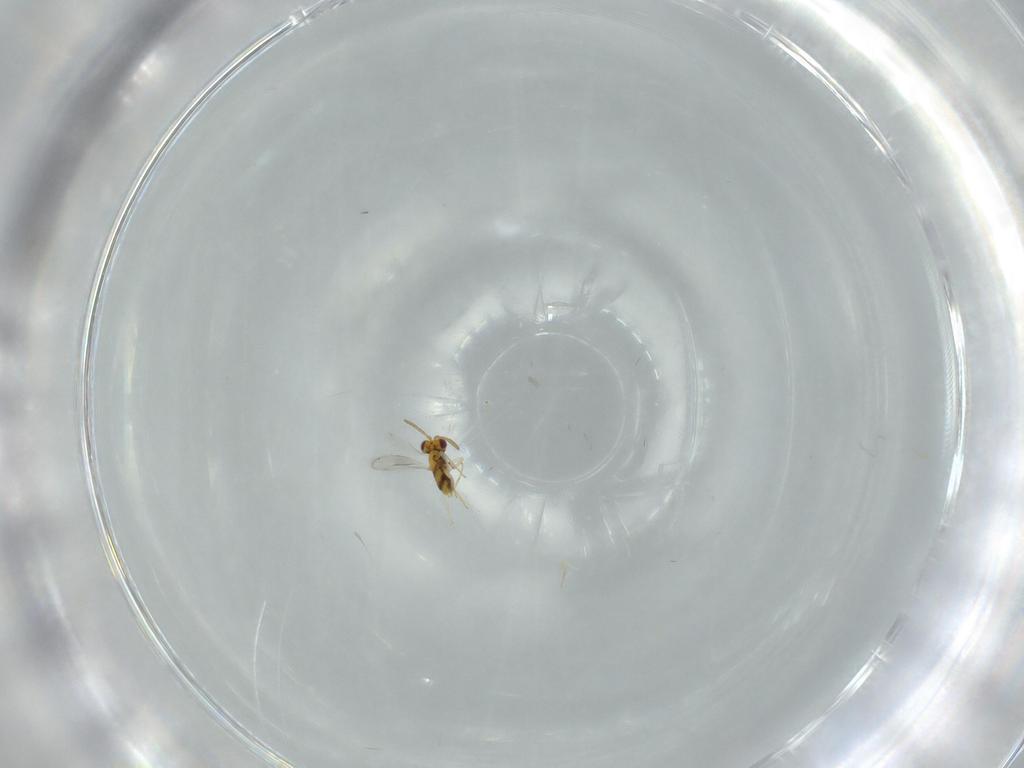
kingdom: Animalia
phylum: Arthropoda
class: Insecta
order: Hymenoptera
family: Aphelinidae
